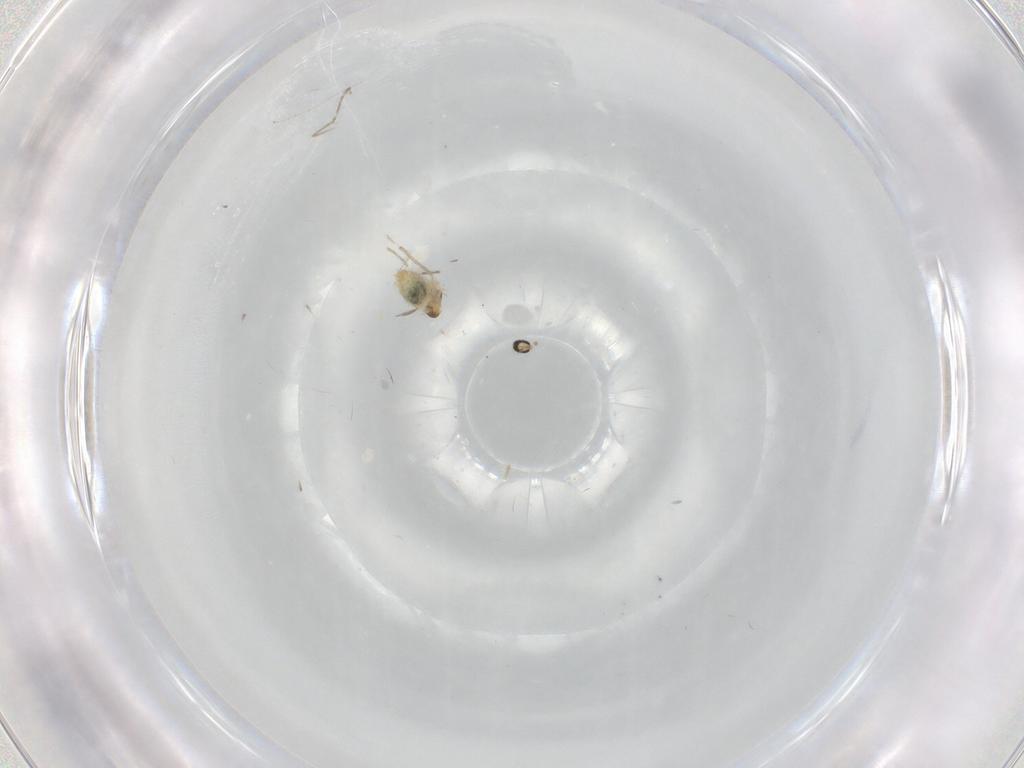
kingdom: Animalia
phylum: Arthropoda
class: Insecta
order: Diptera
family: Cecidomyiidae
